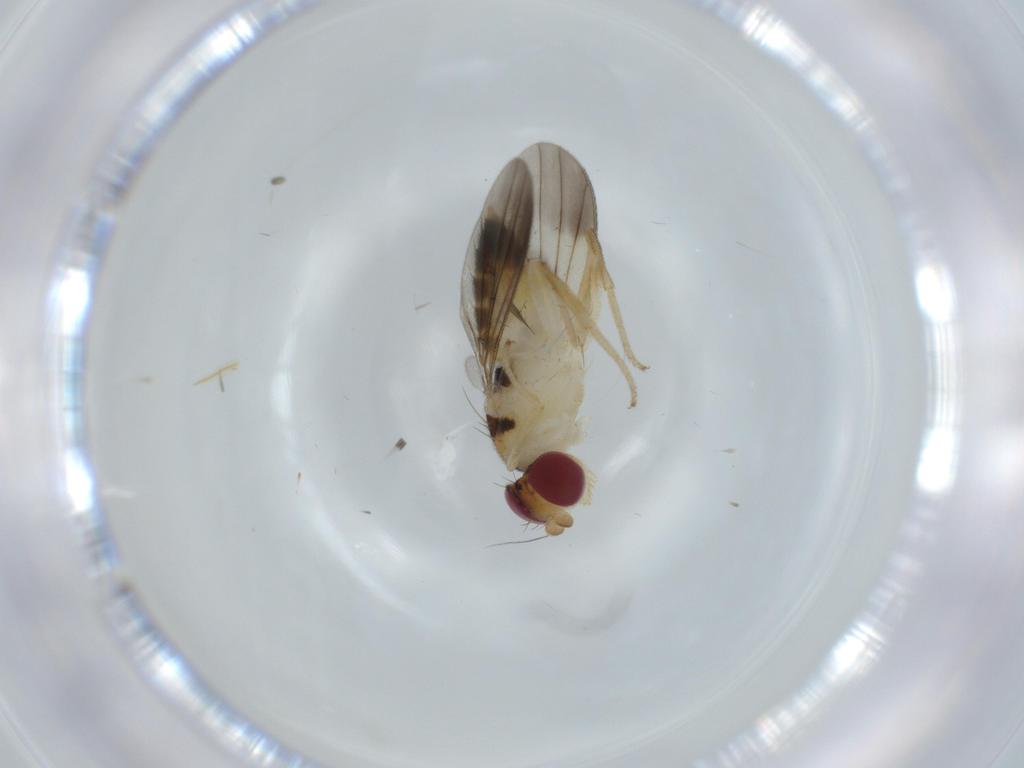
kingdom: Animalia
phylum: Arthropoda
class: Insecta
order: Diptera
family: Clusiidae
